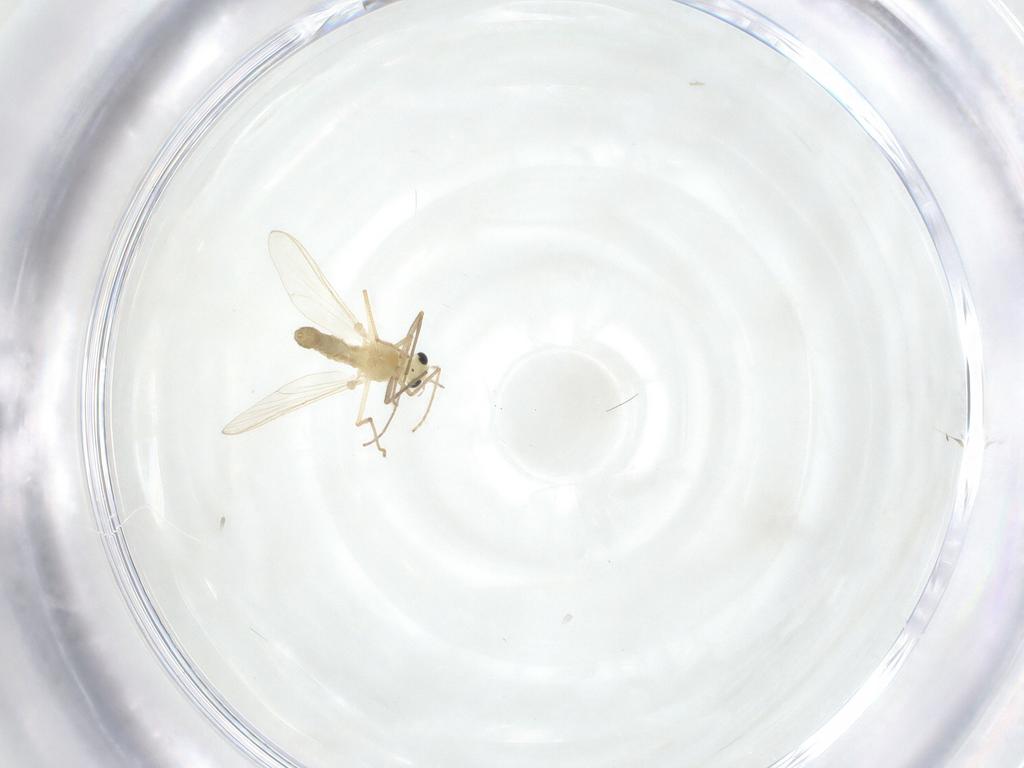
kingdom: Animalia
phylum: Arthropoda
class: Insecta
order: Diptera
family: Chironomidae
